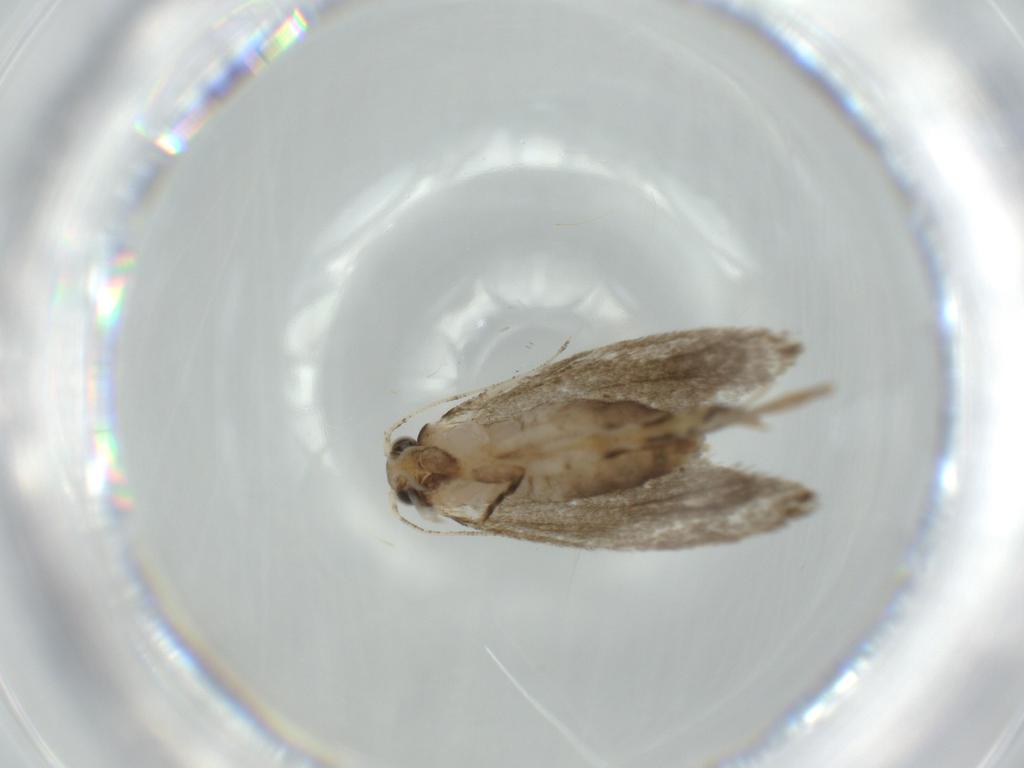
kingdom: Animalia
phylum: Arthropoda
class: Insecta
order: Lepidoptera
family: Tineidae
